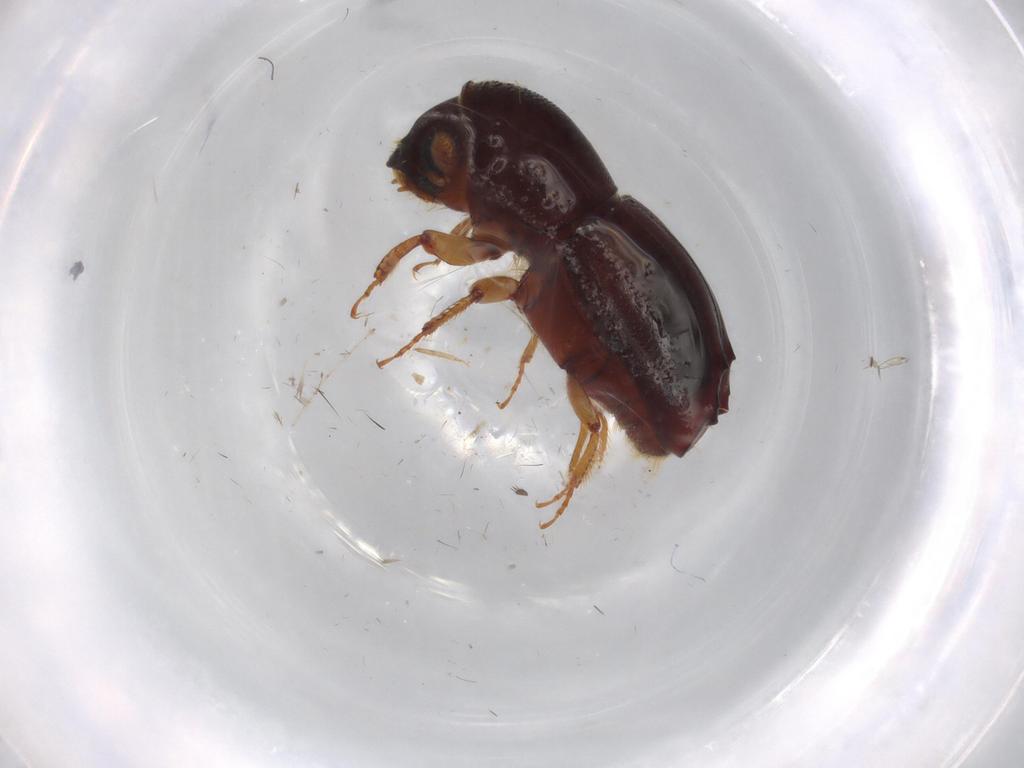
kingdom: Animalia
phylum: Arthropoda
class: Insecta
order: Coleoptera
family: Curculionidae
